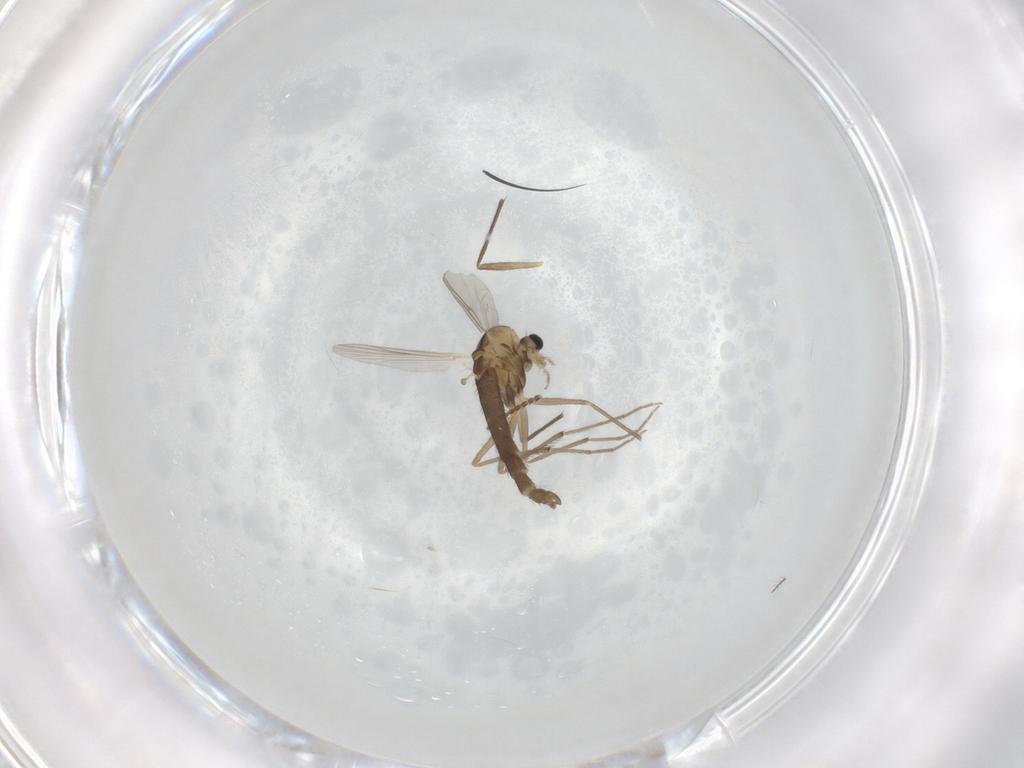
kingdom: Animalia
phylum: Arthropoda
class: Insecta
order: Diptera
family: Chironomidae
